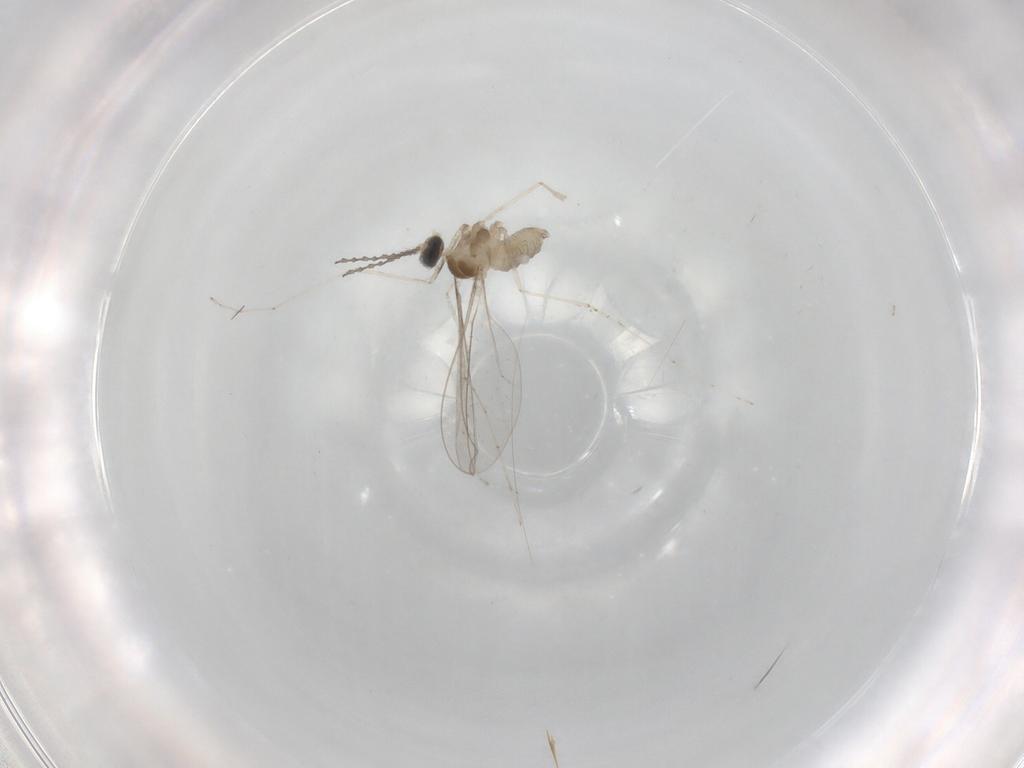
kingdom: Animalia
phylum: Arthropoda
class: Insecta
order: Diptera
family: Cecidomyiidae
